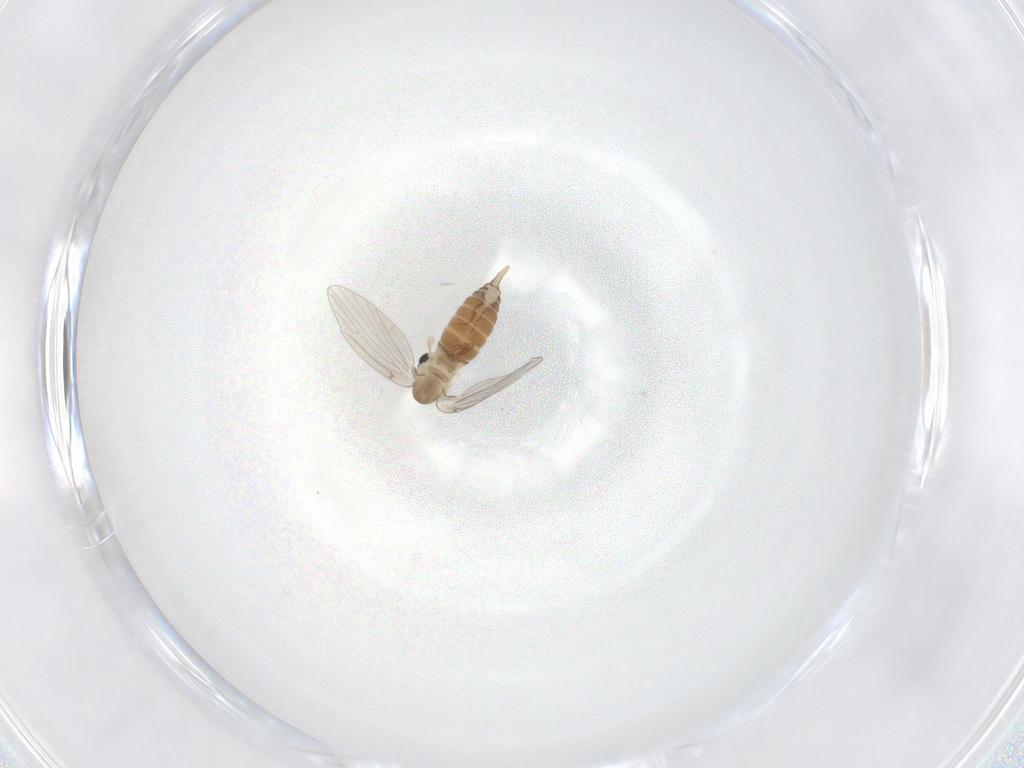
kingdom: Animalia
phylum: Arthropoda
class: Insecta
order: Diptera
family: Psychodidae
